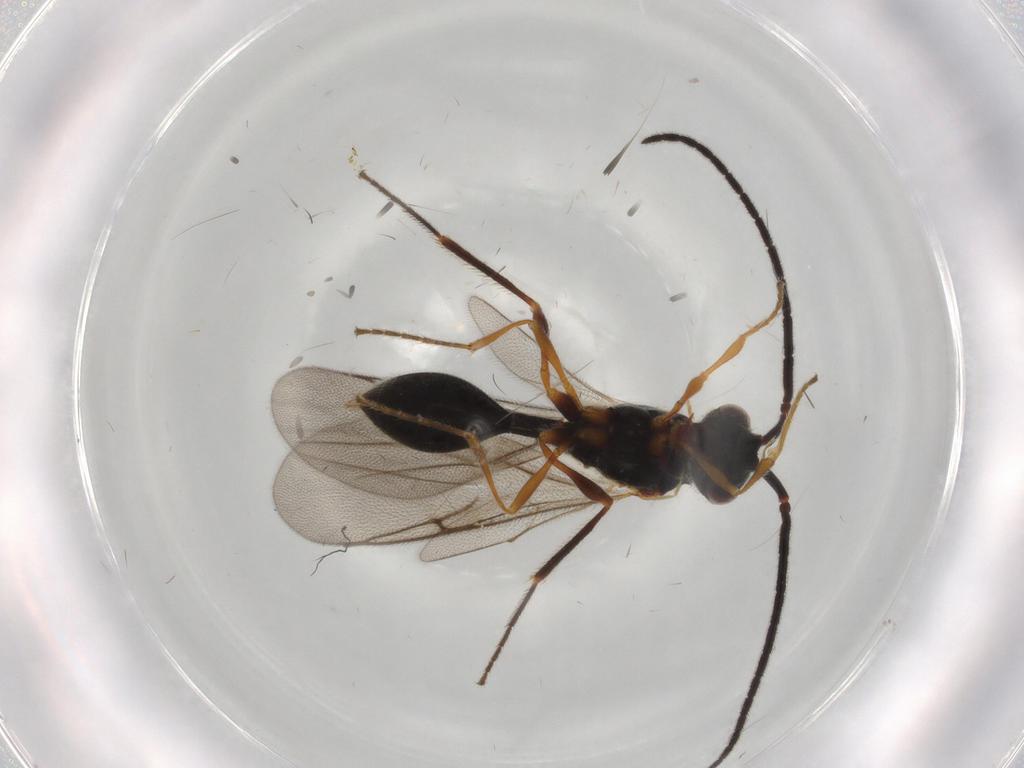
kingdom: Animalia
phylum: Arthropoda
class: Insecta
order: Hymenoptera
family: Diapriidae
